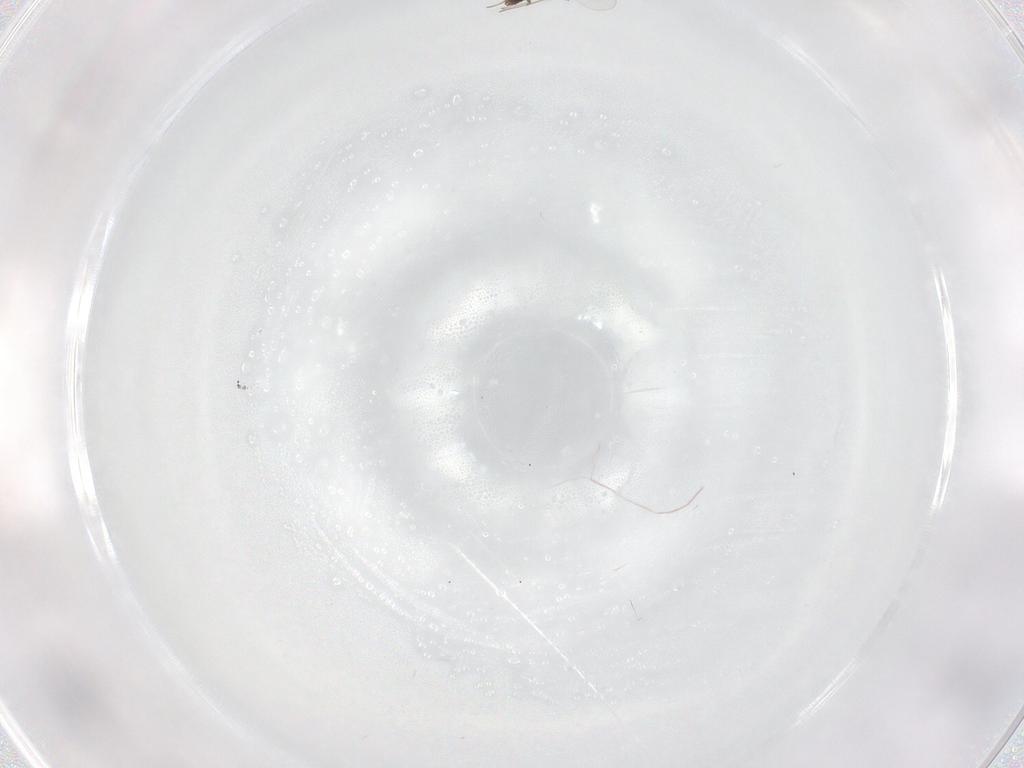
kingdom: Animalia
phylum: Arthropoda
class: Insecta
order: Diptera
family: Chironomidae
